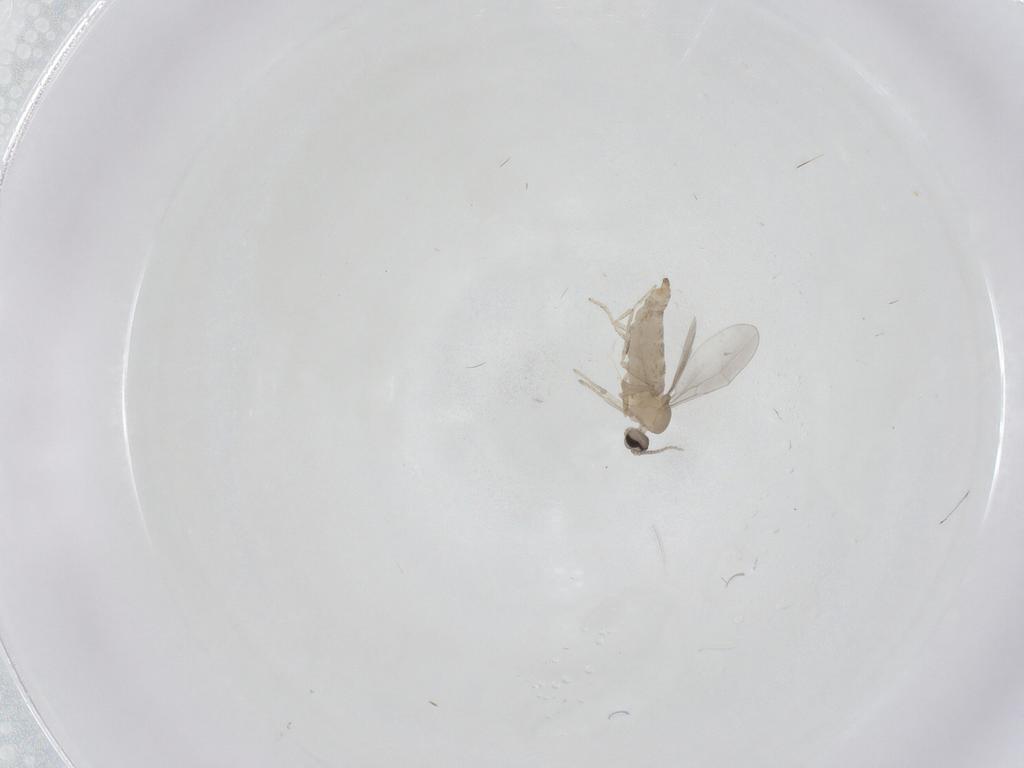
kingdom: Animalia
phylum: Arthropoda
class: Insecta
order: Diptera
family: Cecidomyiidae
